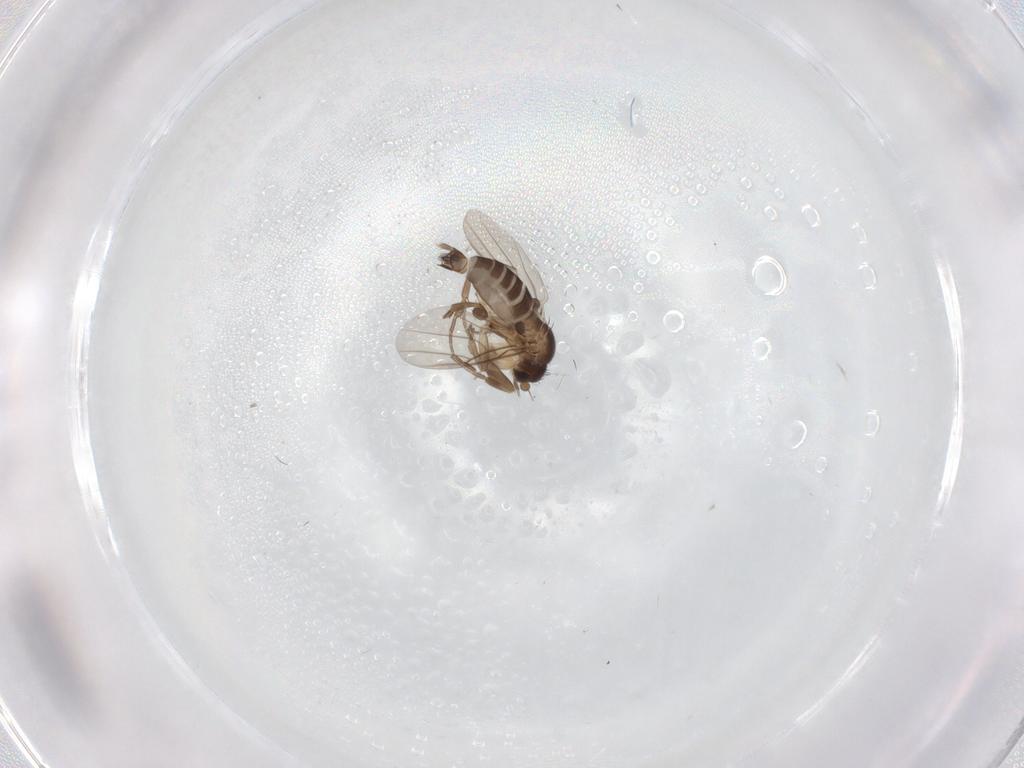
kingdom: Animalia
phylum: Arthropoda
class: Insecta
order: Diptera
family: Phoridae
